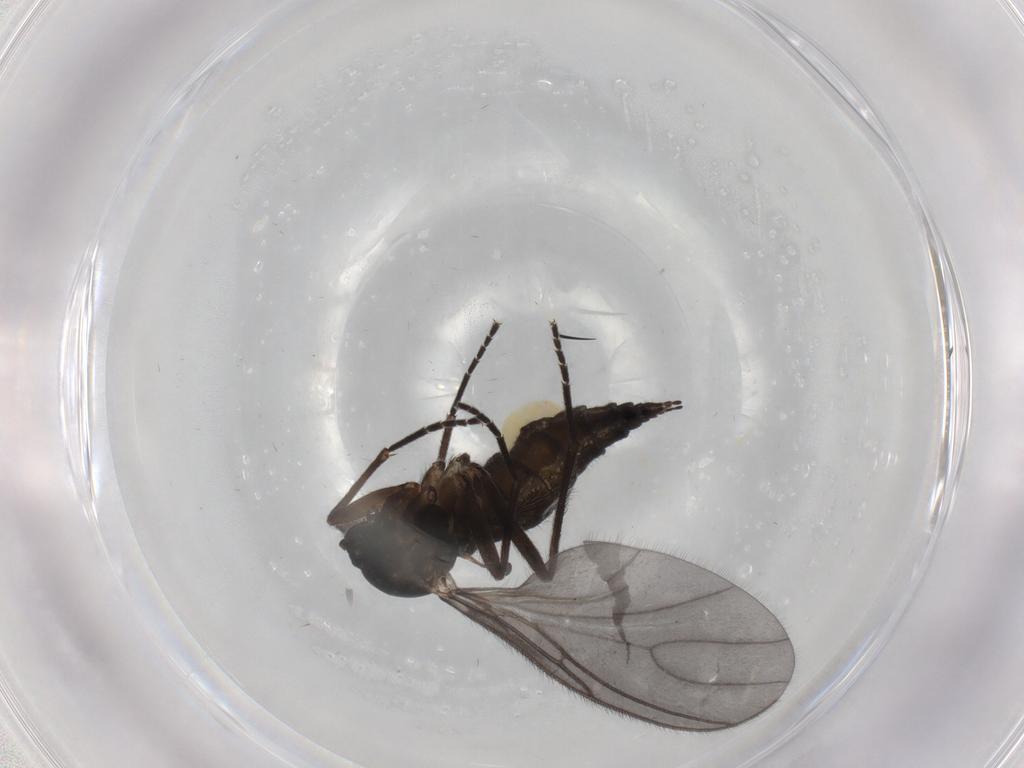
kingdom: Animalia
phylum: Arthropoda
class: Insecta
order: Diptera
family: Sciaridae
